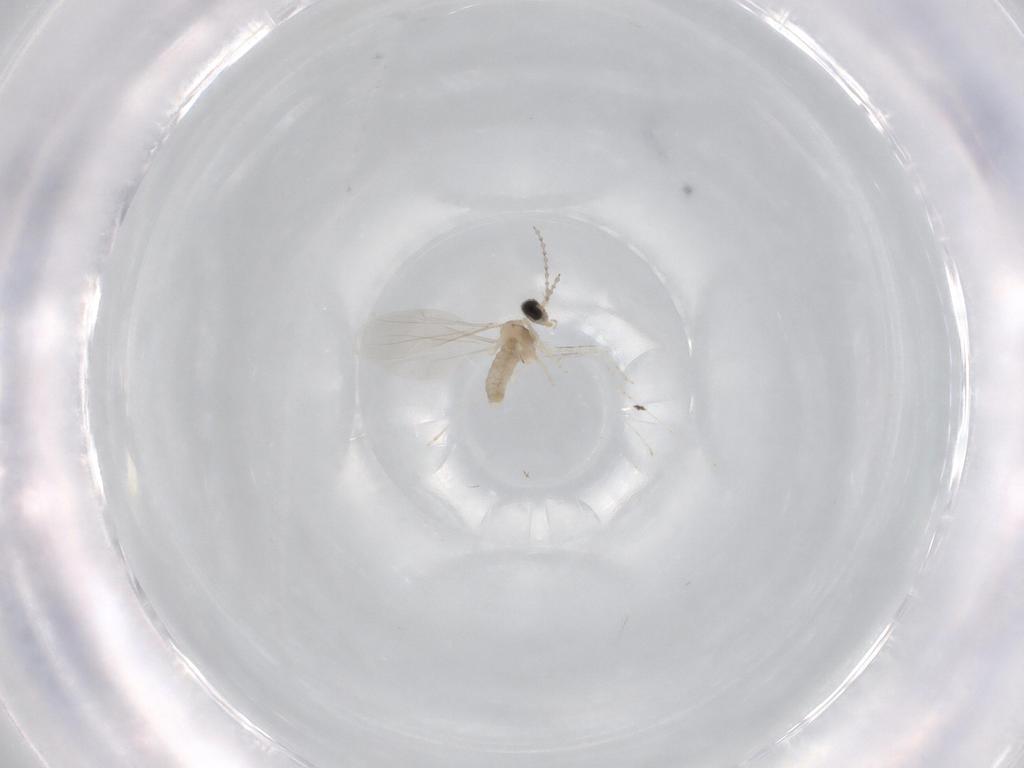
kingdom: Animalia
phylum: Arthropoda
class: Insecta
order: Diptera
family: Cecidomyiidae
